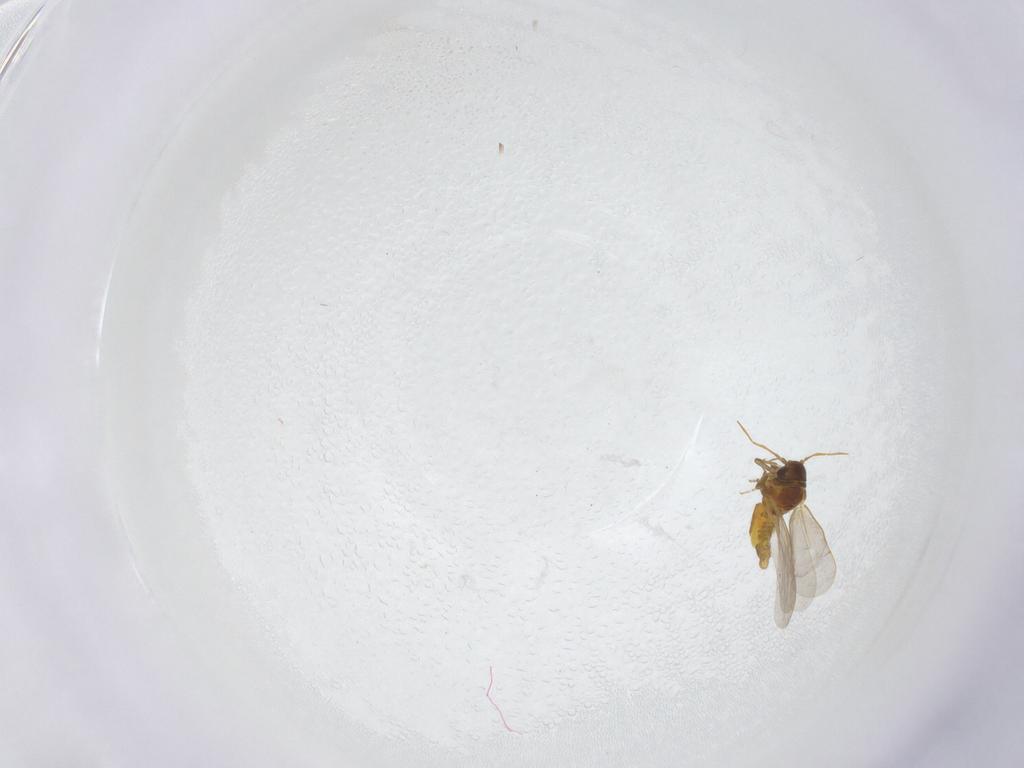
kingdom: Animalia
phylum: Arthropoda
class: Insecta
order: Hemiptera
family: Aleyrodidae
